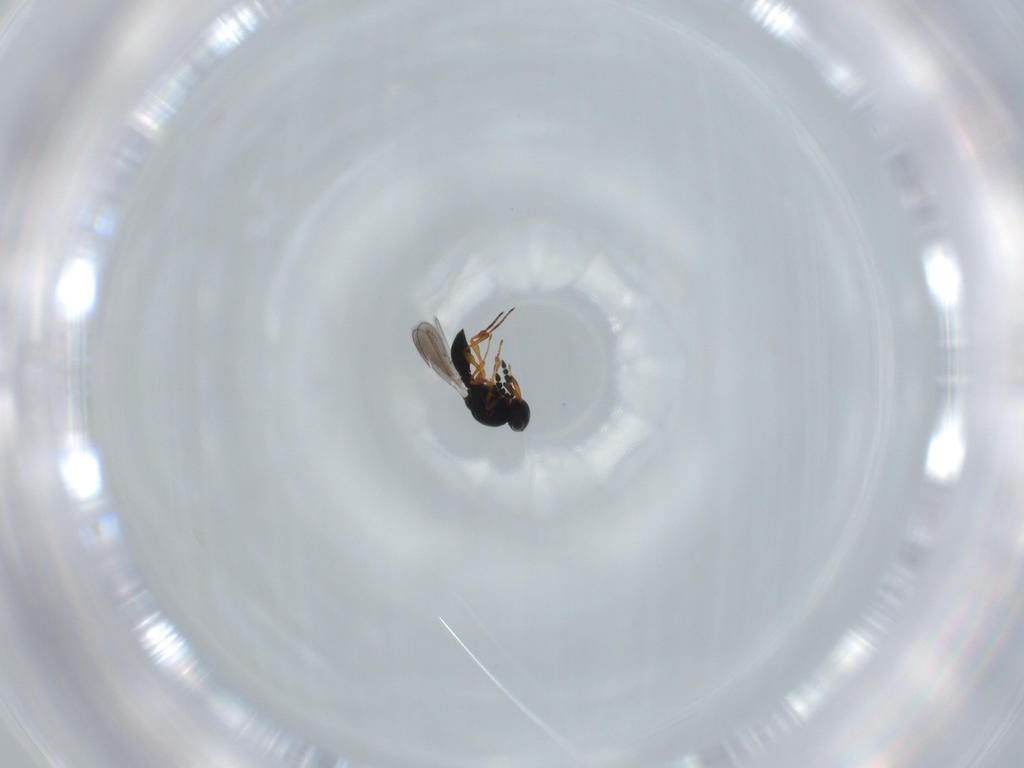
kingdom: Animalia
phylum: Arthropoda
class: Insecta
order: Hymenoptera
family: Platygastridae
